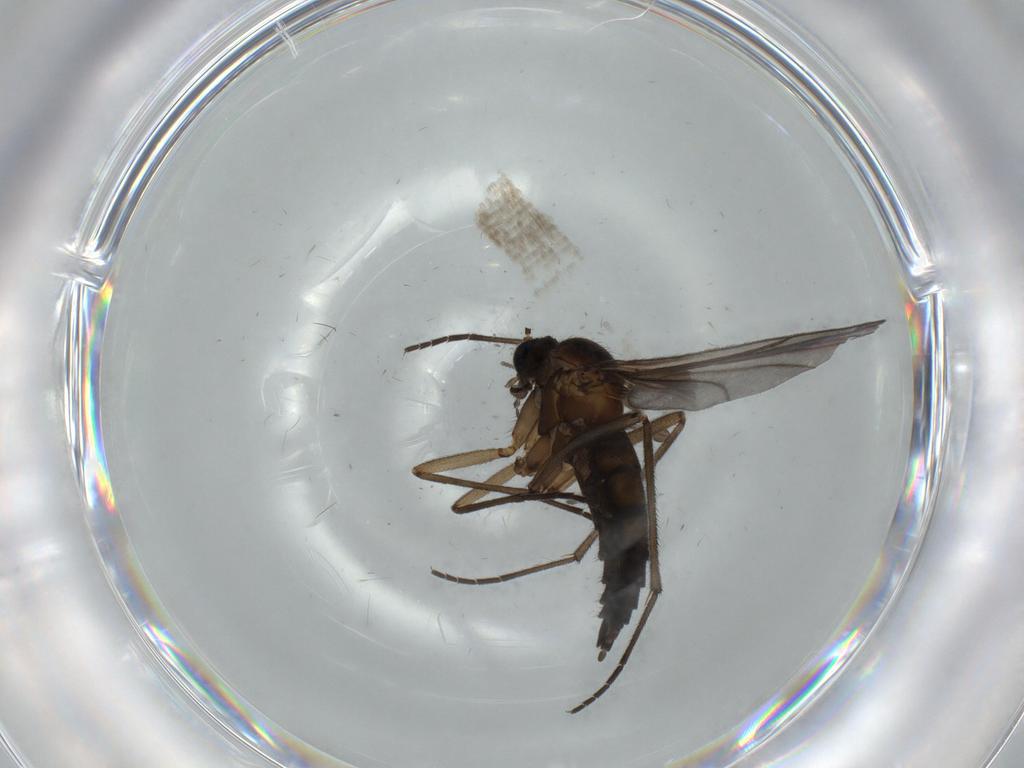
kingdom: Animalia
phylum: Arthropoda
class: Insecta
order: Diptera
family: Sciaridae
